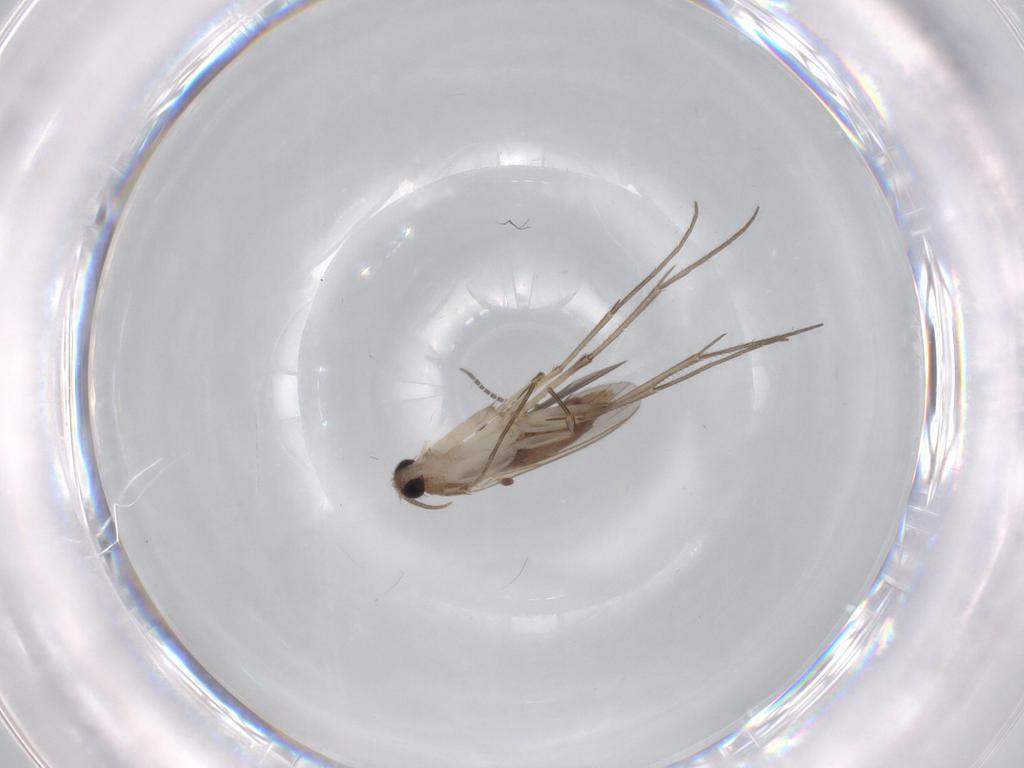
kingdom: Animalia
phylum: Arthropoda
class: Insecta
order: Diptera
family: Mycetophilidae
